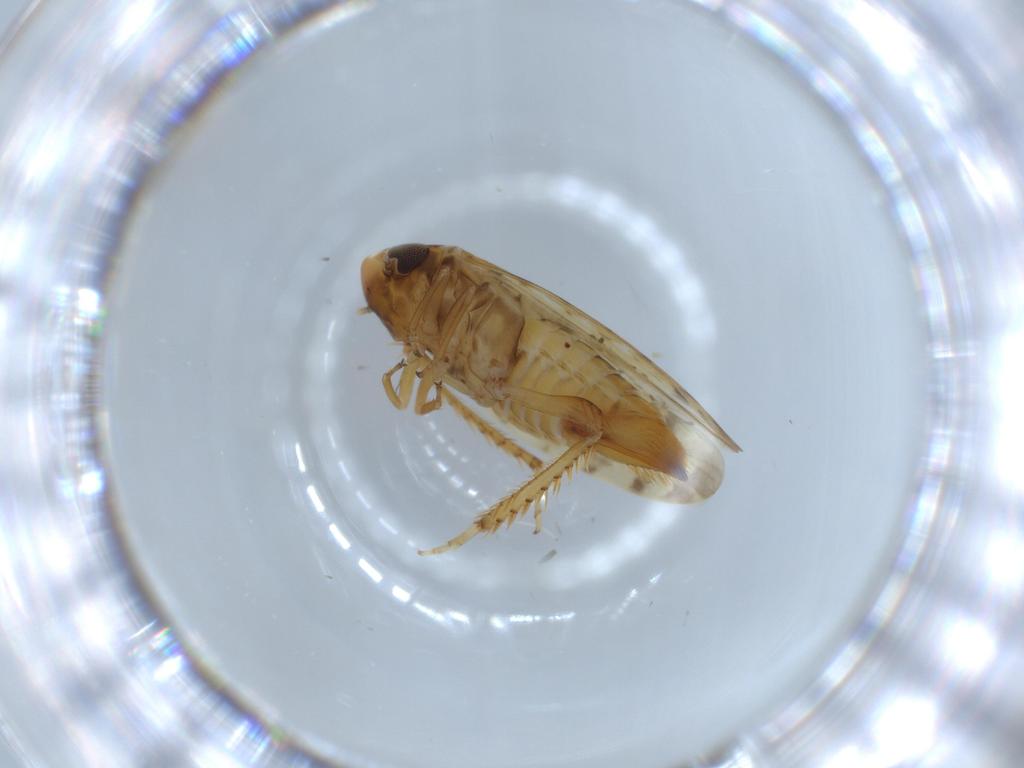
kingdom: Animalia
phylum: Arthropoda
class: Insecta
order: Hemiptera
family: Cicadellidae
